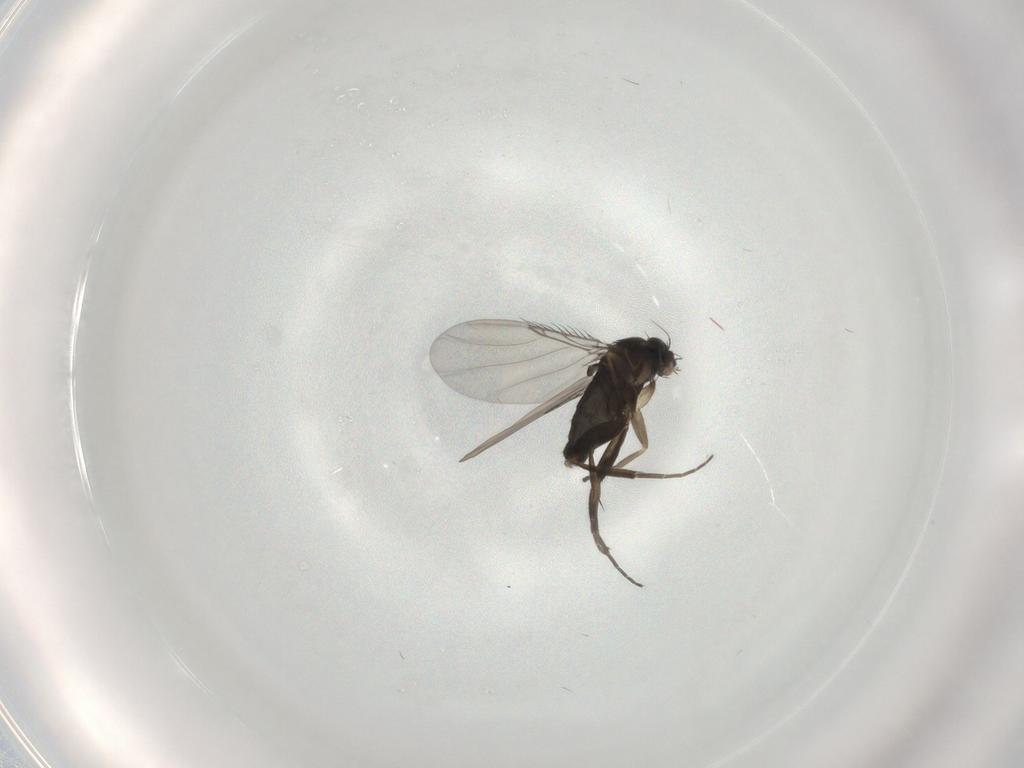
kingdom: Animalia
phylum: Arthropoda
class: Insecta
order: Diptera
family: Phoridae
